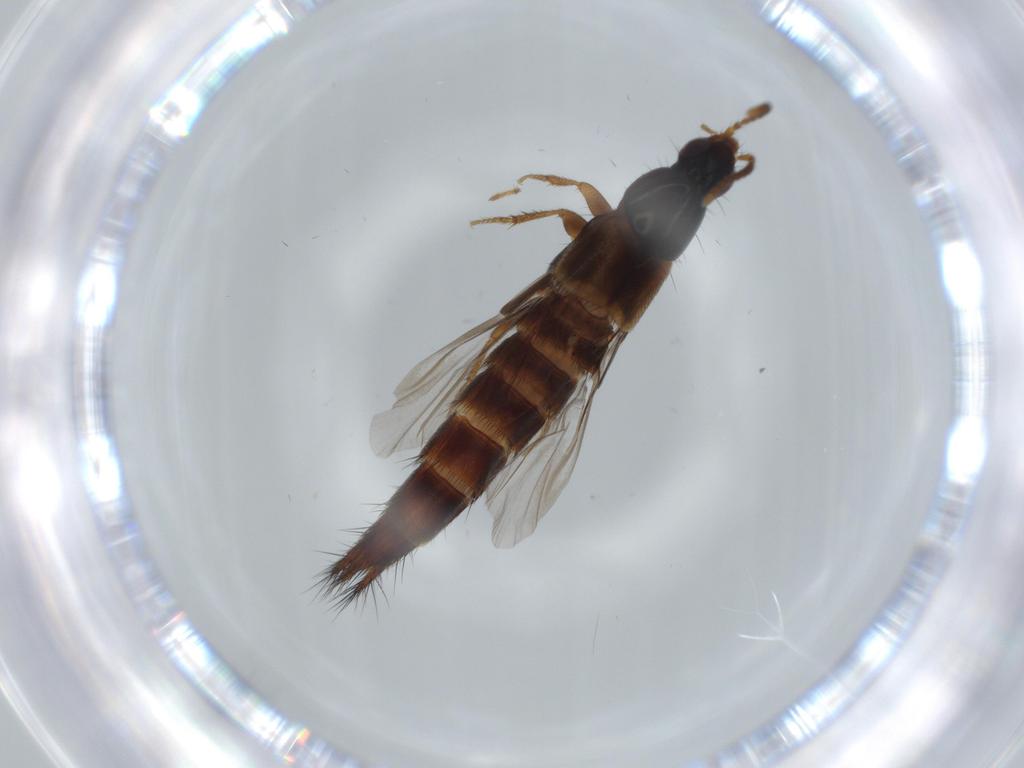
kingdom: Animalia
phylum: Arthropoda
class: Insecta
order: Coleoptera
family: Staphylinidae
